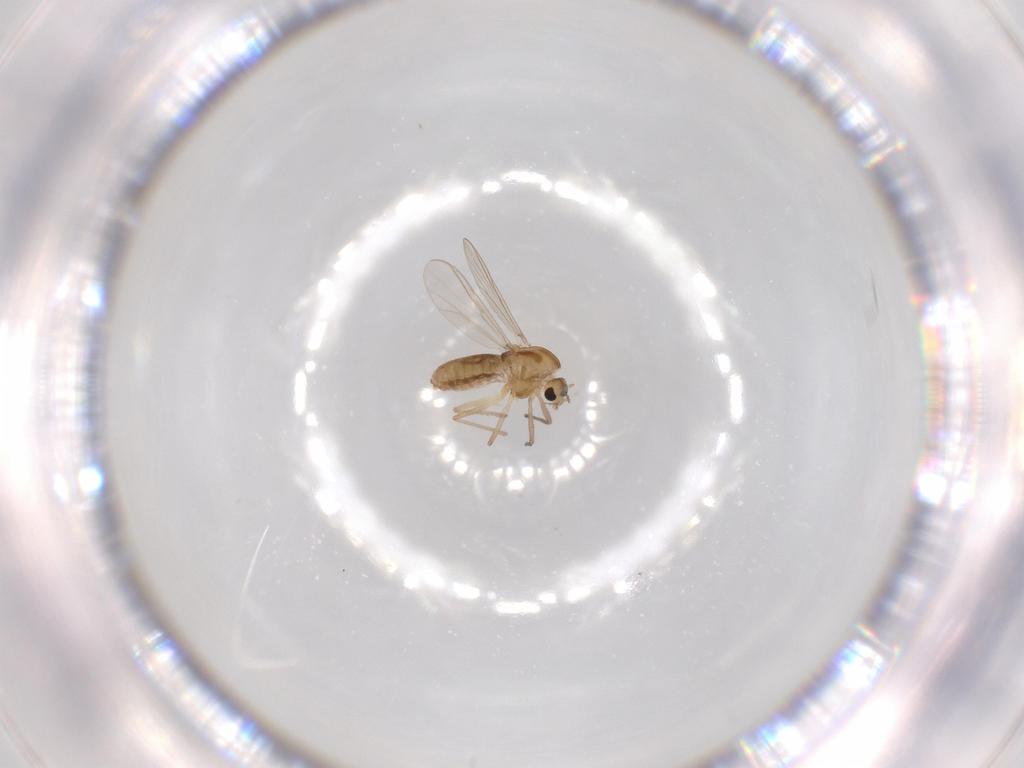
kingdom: Animalia
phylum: Arthropoda
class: Insecta
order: Diptera
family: Chironomidae
